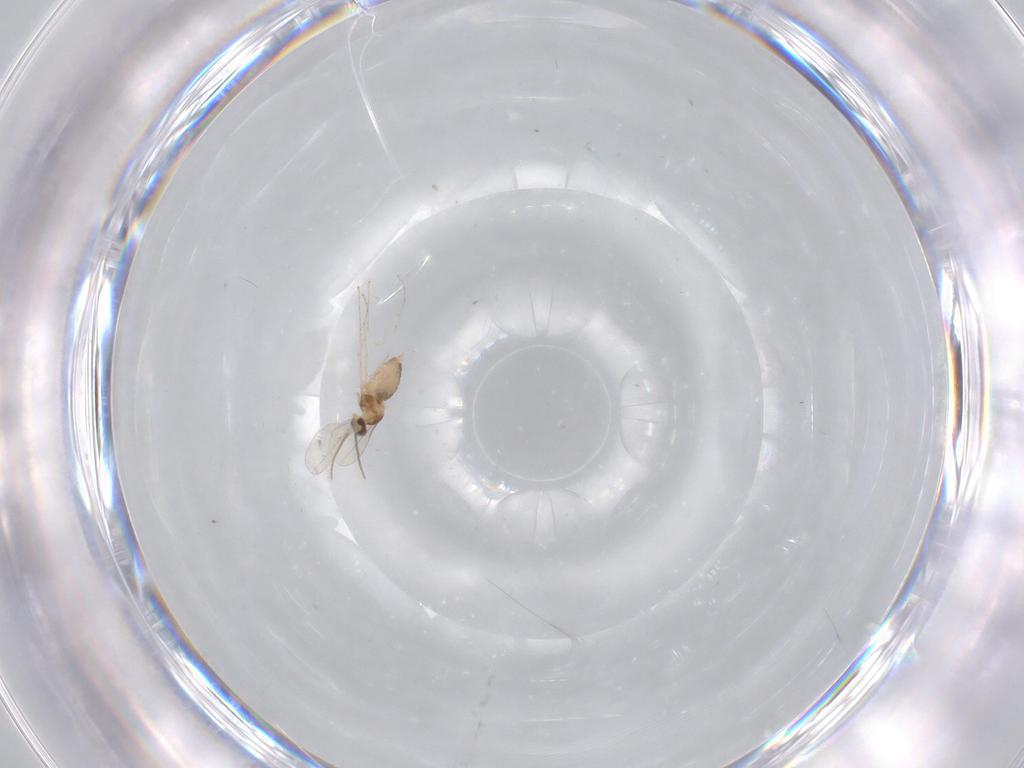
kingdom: Animalia
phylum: Arthropoda
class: Insecta
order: Diptera
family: Cecidomyiidae
